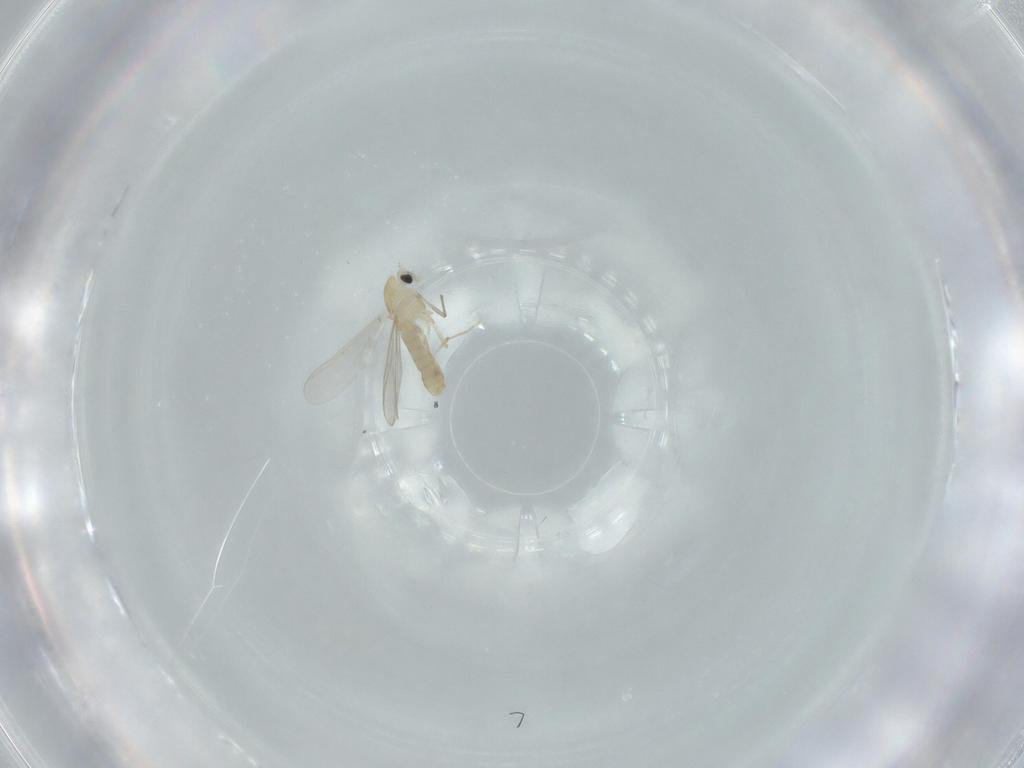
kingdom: Animalia
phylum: Arthropoda
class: Insecta
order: Diptera
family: Chironomidae
